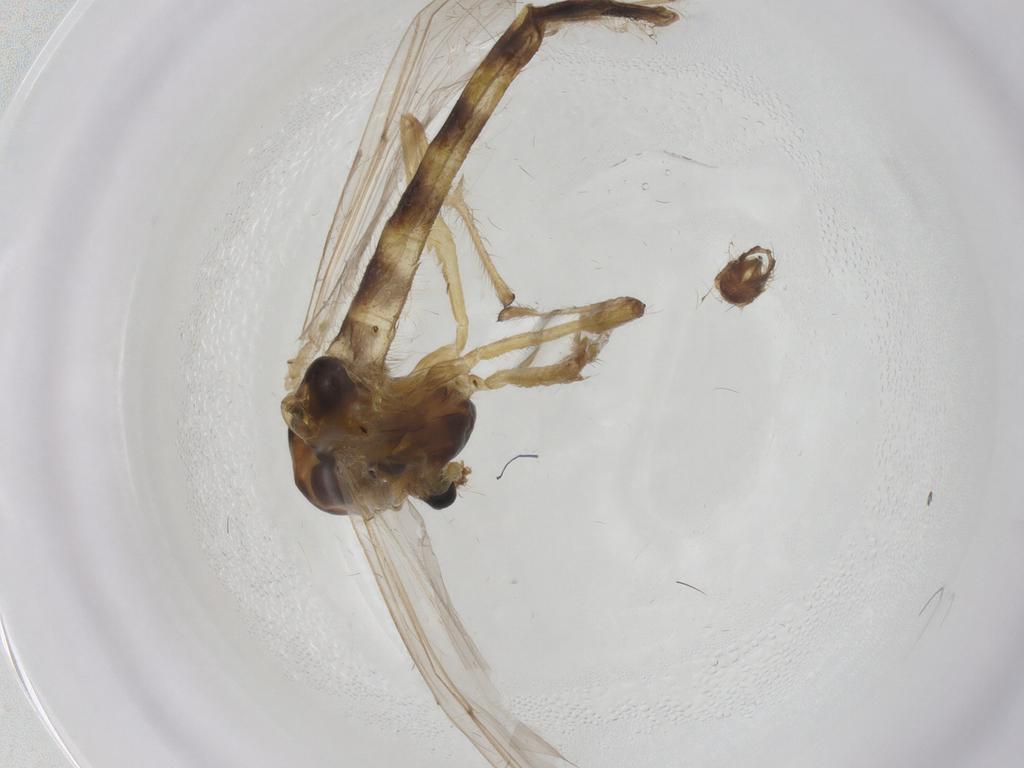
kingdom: Animalia
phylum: Arthropoda
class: Insecta
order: Diptera
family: Chironomidae
